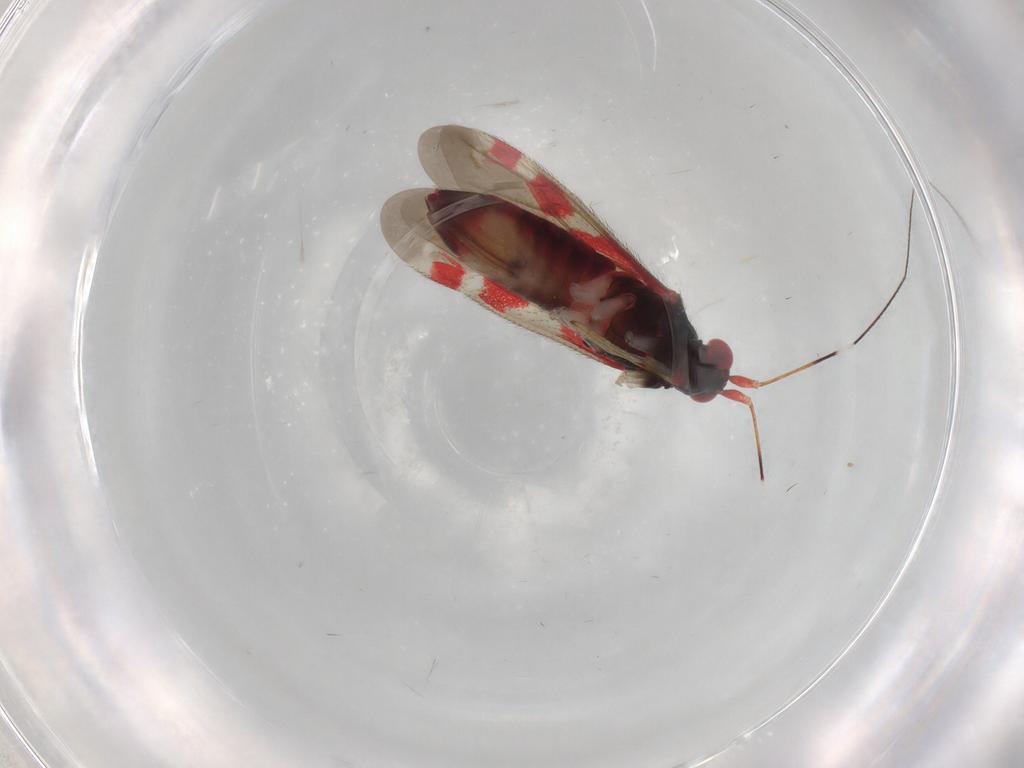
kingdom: Animalia
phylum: Arthropoda
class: Insecta
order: Hemiptera
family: Miridae
